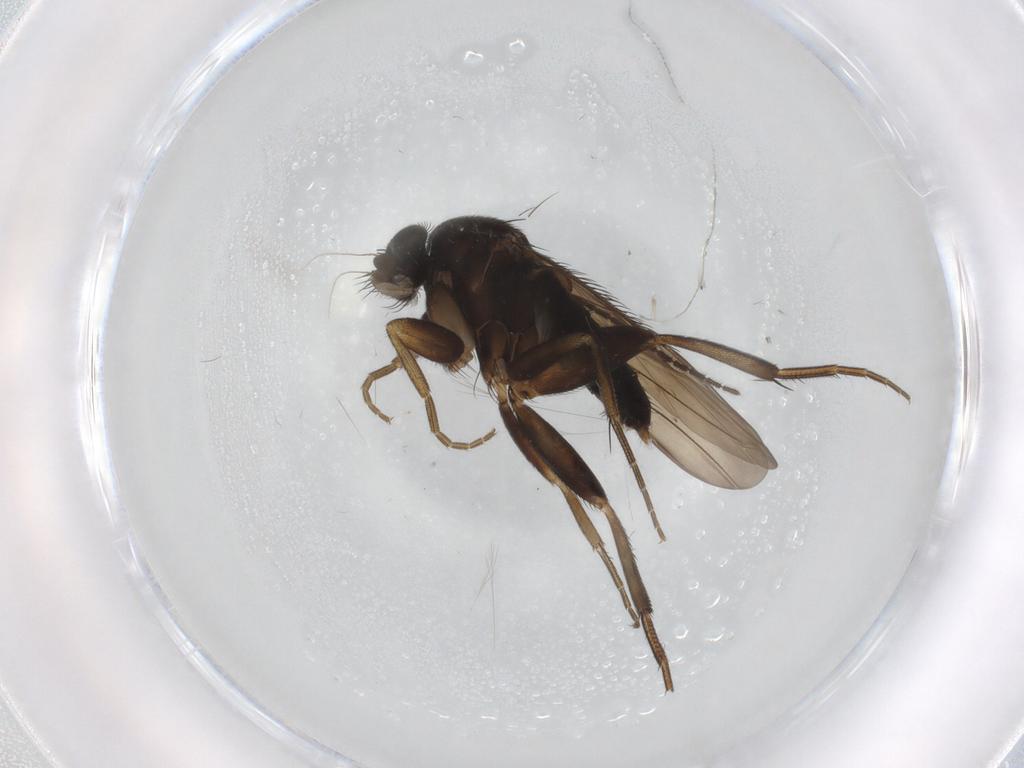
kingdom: Animalia
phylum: Arthropoda
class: Insecta
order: Diptera
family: Phoridae
